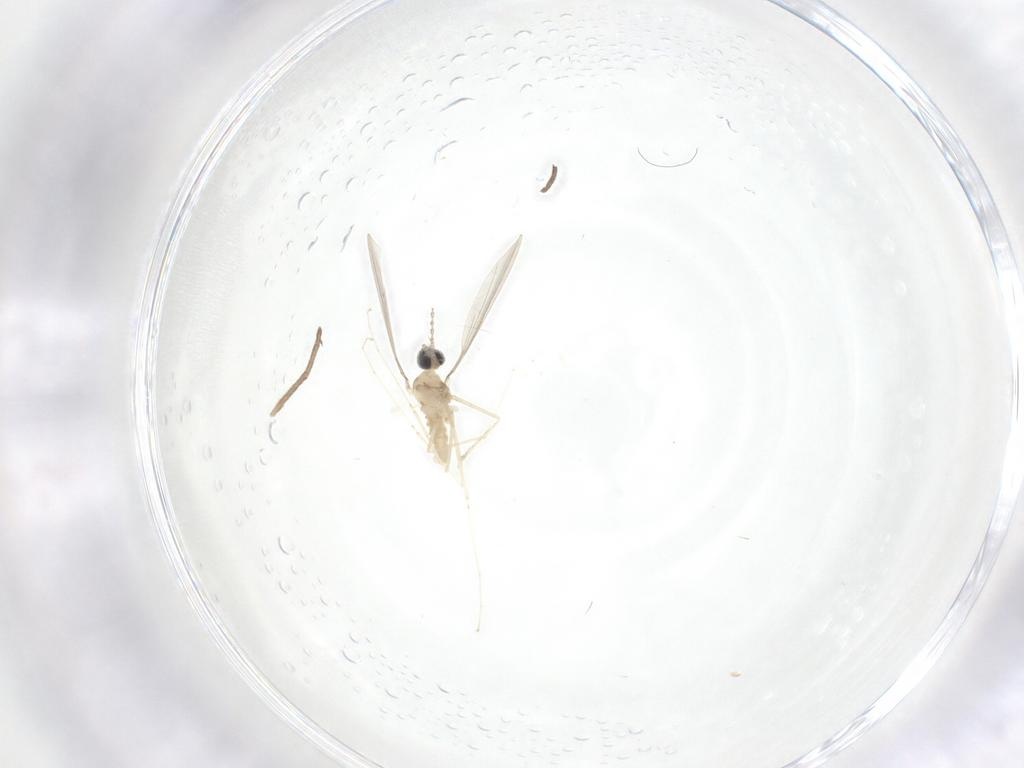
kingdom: Animalia
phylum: Arthropoda
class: Insecta
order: Diptera
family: Cecidomyiidae
